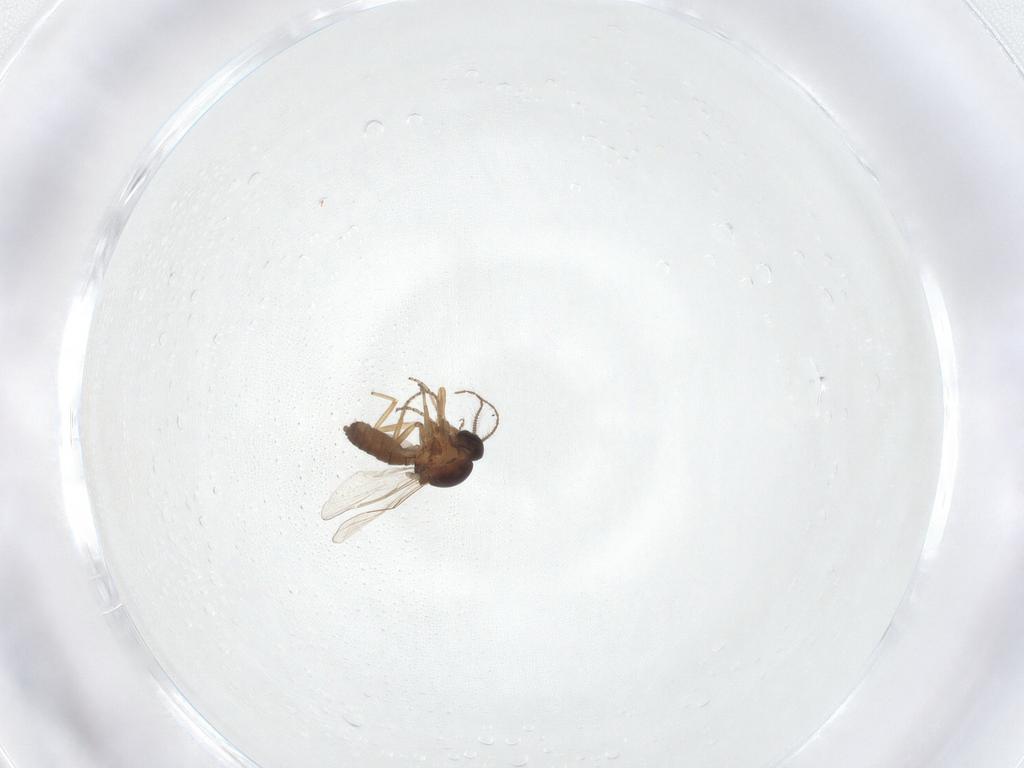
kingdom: Animalia
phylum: Arthropoda
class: Insecta
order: Diptera
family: Ceratopogonidae
